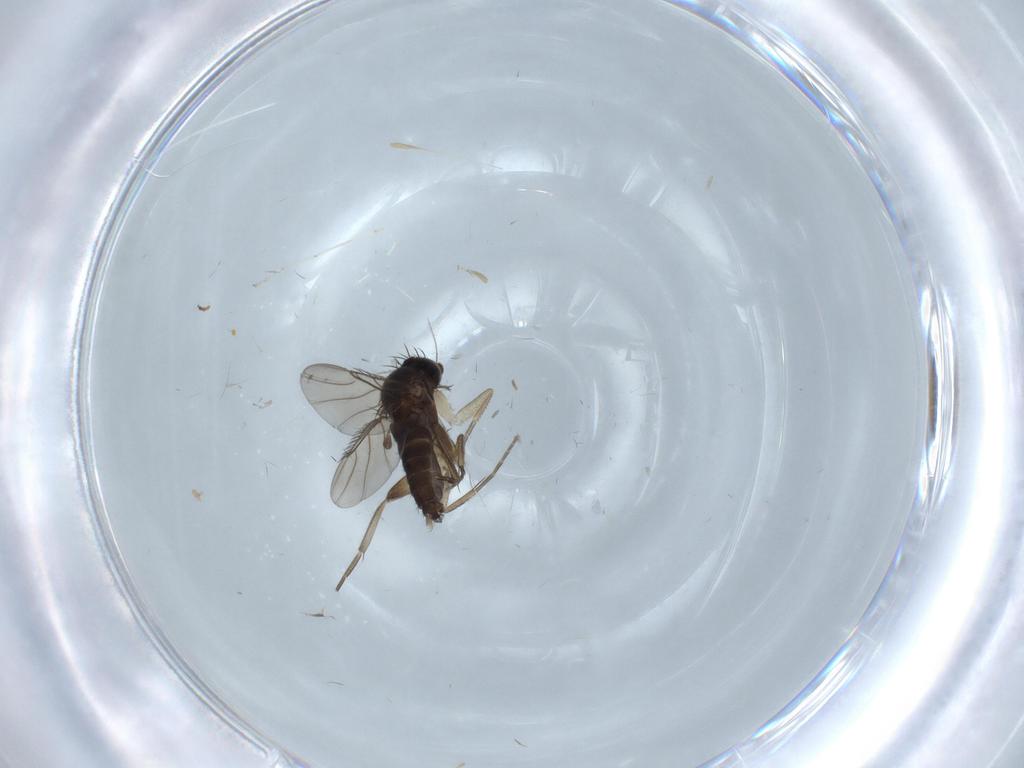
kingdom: Animalia
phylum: Arthropoda
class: Insecta
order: Diptera
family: Phoridae
